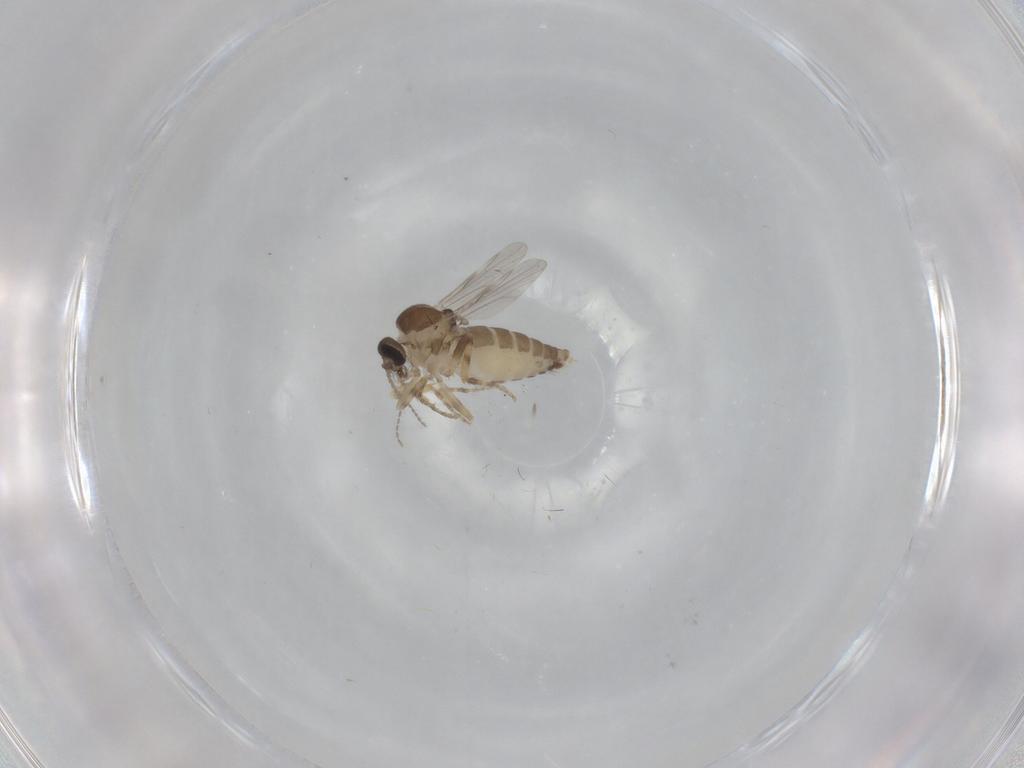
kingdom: Animalia
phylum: Arthropoda
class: Insecta
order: Diptera
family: Ceratopogonidae
